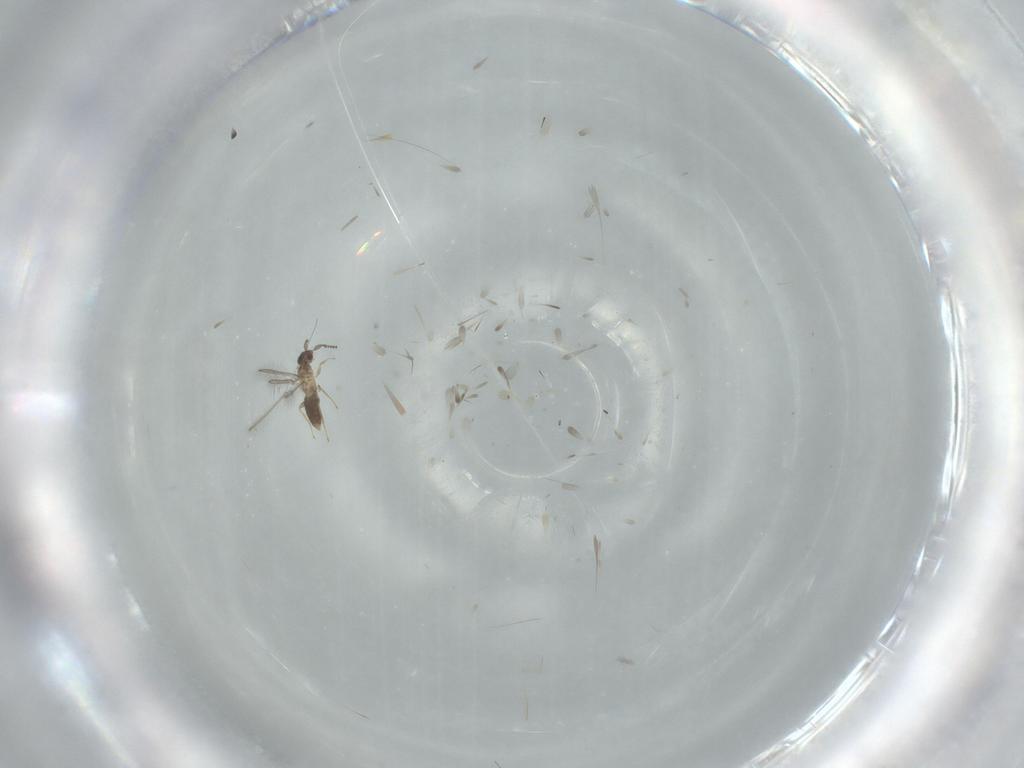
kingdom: Animalia
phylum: Arthropoda
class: Insecta
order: Hymenoptera
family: Mymaridae
